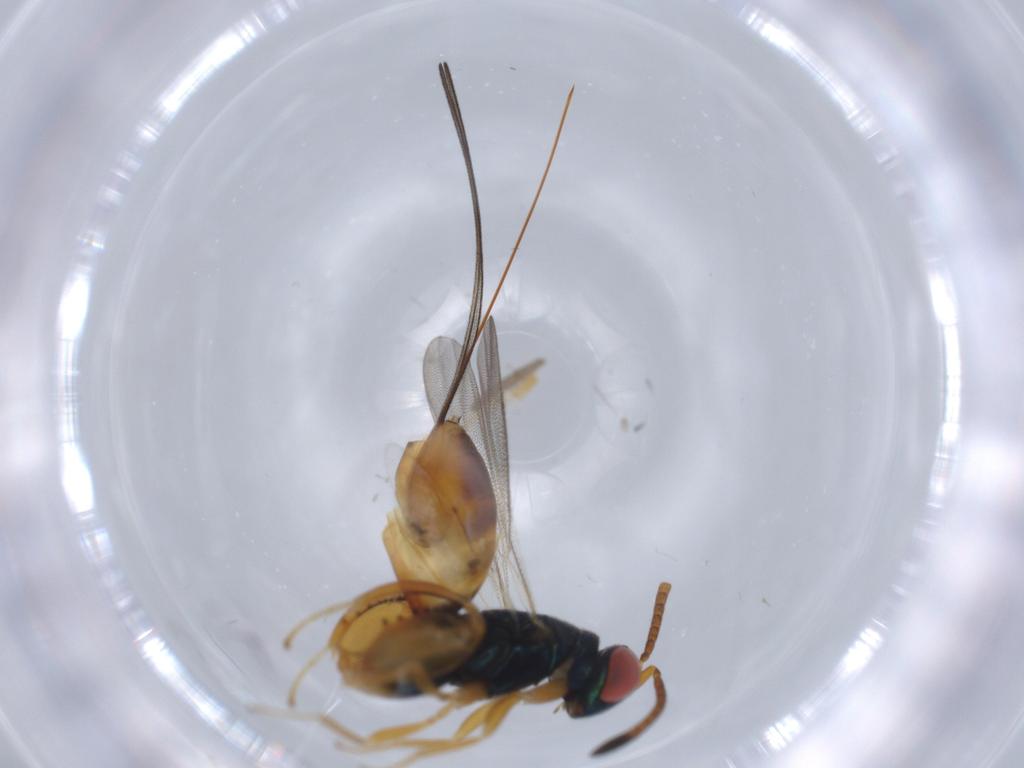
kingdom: Animalia
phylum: Arthropoda
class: Insecta
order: Hymenoptera
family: Torymidae
